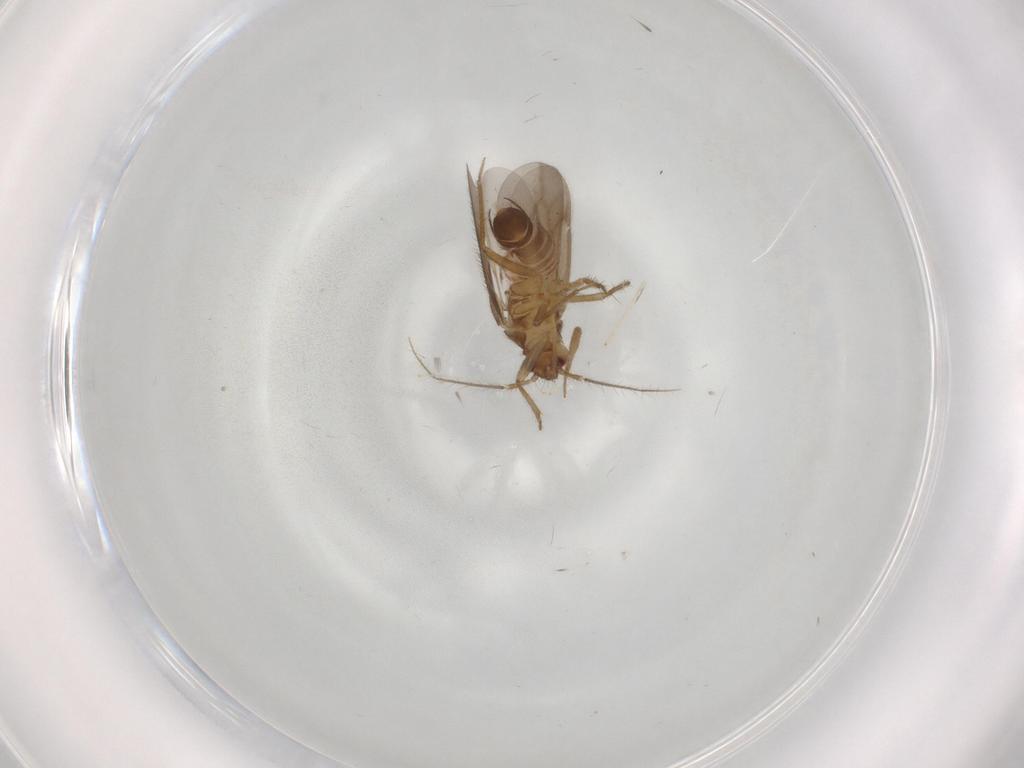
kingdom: Animalia
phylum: Arthropoda
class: Insecta
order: Hemiptera
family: Ceratocombidae
